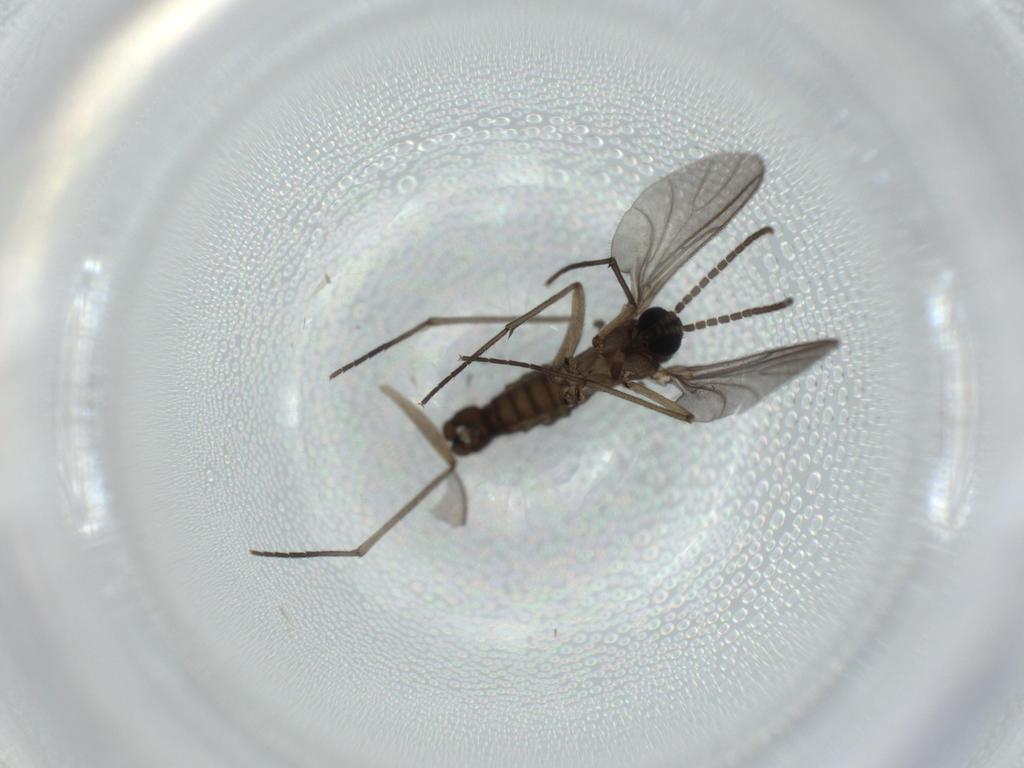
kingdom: Animalia
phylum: Arthropoda
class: Insecta
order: Diptera
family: Sciaridae
